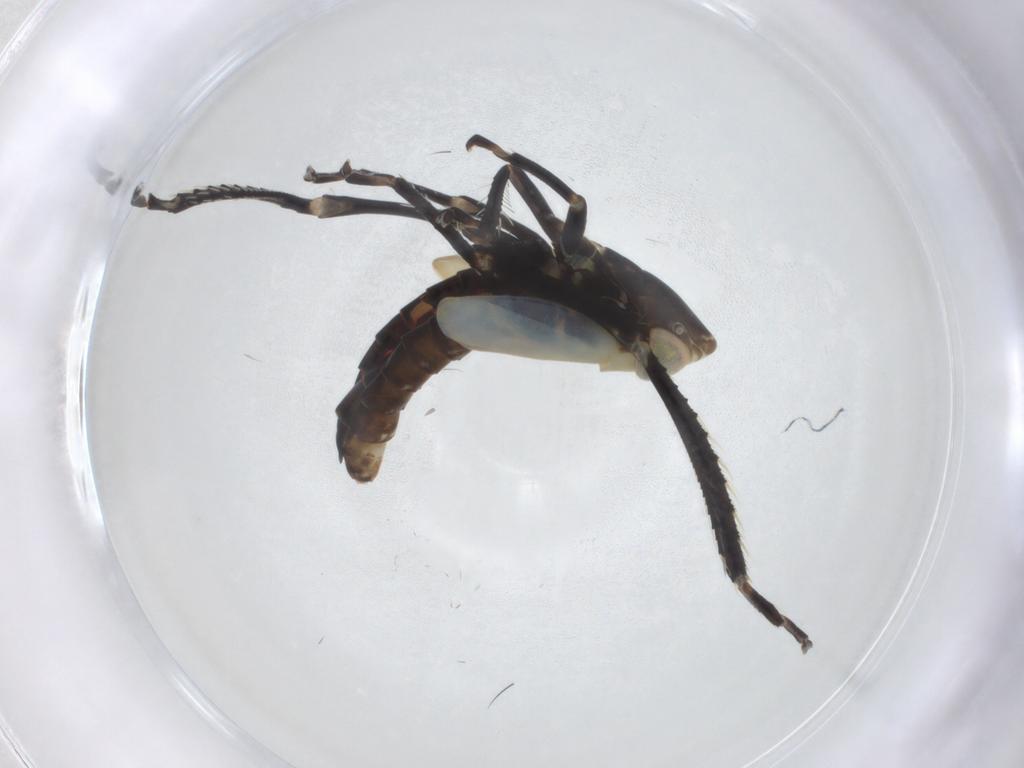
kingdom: Animalia
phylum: Arthropoda
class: Insecta
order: Hemiptera
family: Cicadellidae
